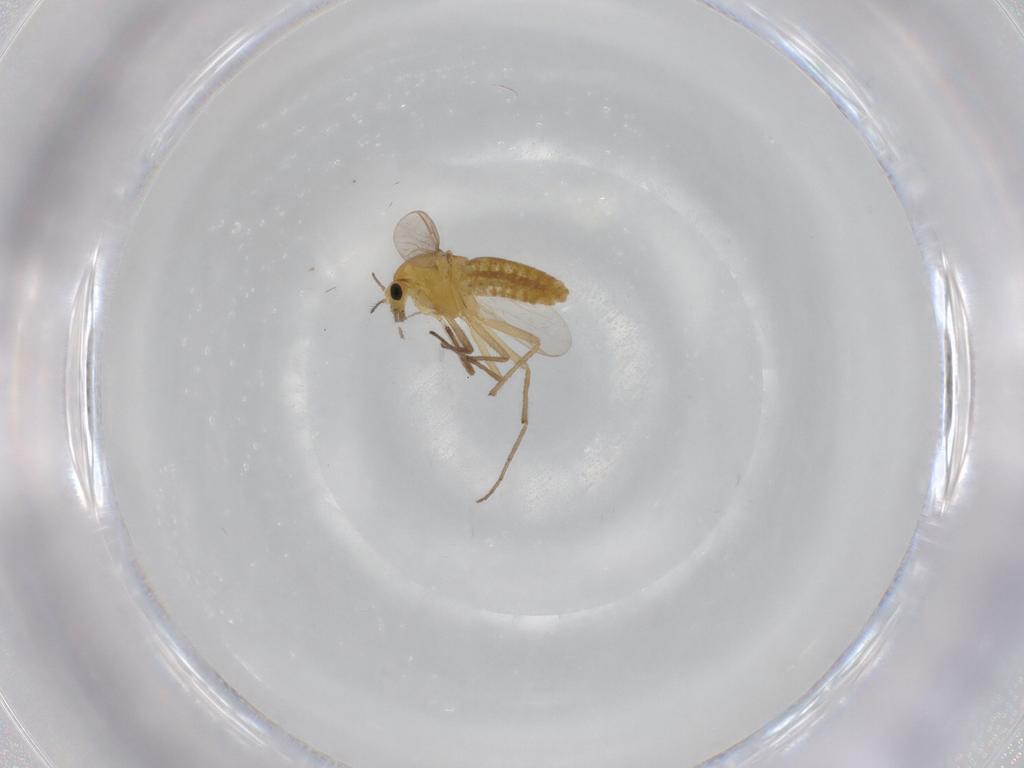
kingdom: Animalia
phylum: Arthropoda
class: Insecta
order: Diptera
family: Chironomidae
